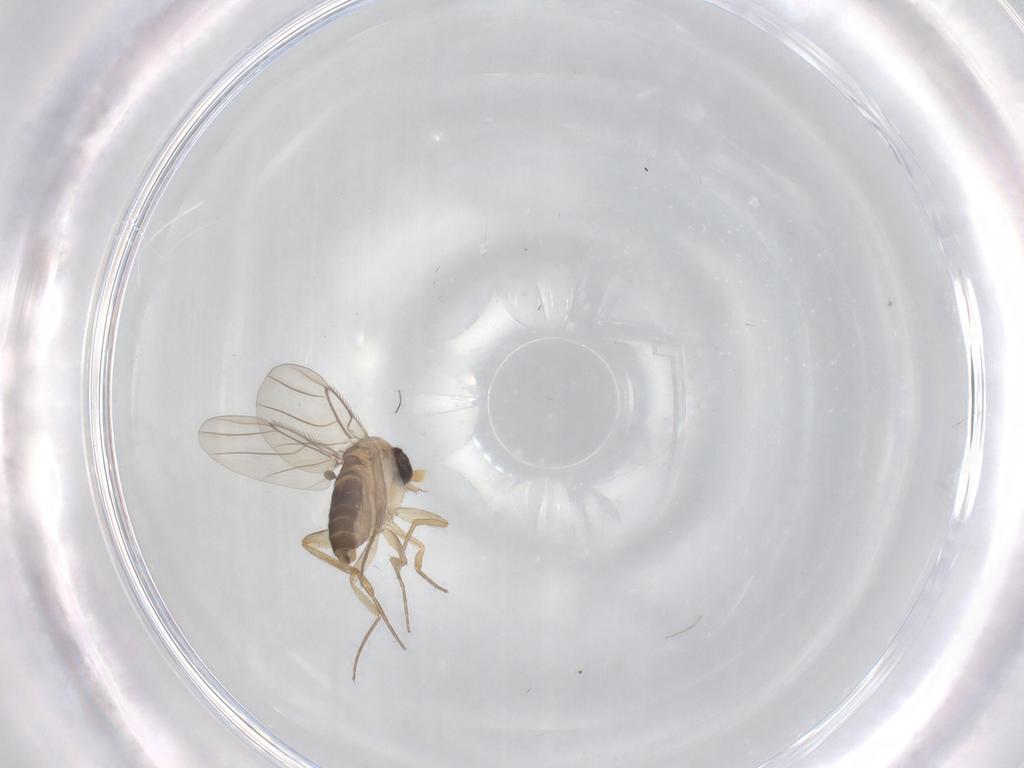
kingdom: Animalia
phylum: Arthropoda
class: Insecta
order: Diptera
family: Cecidomyiidae
